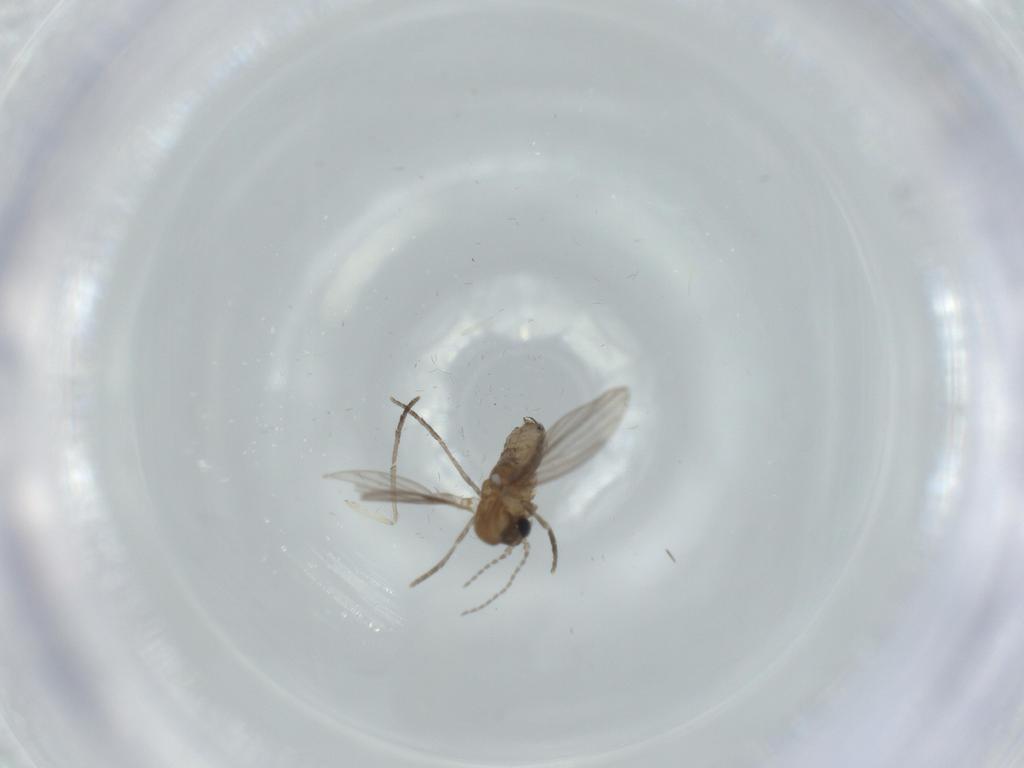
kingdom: Animalia
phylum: Arthropoda
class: Insecta
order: Diptera
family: Psychodidae
